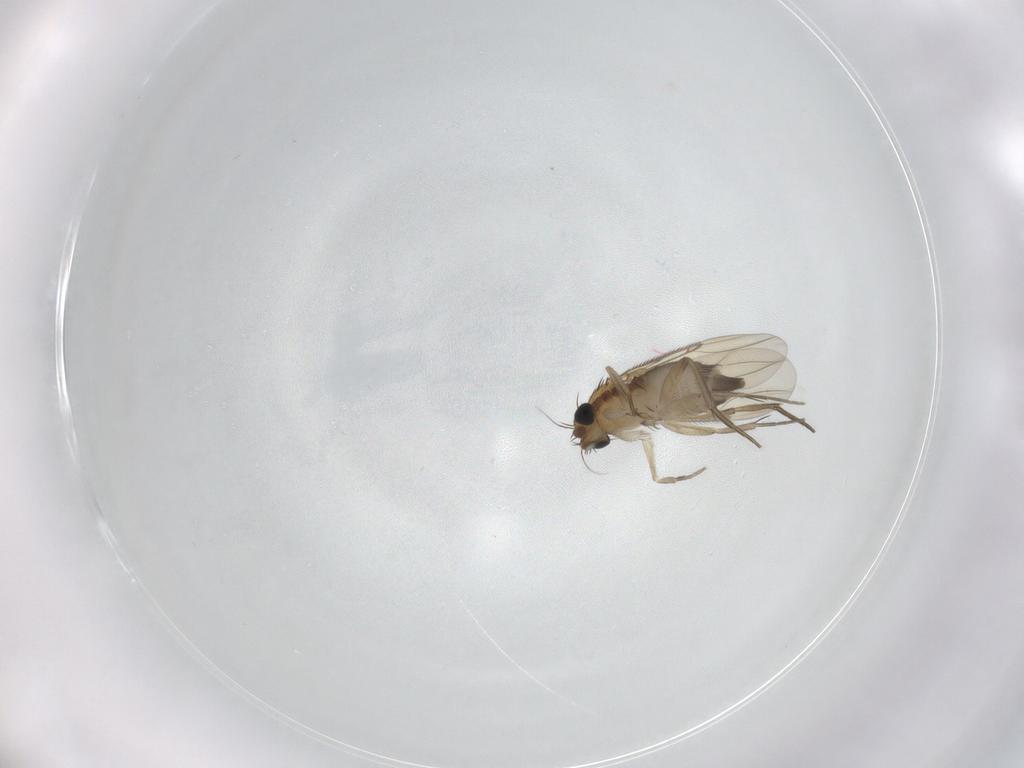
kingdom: Animalia
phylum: Arthropoda
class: Insecta
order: Diptera
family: Phoridae
